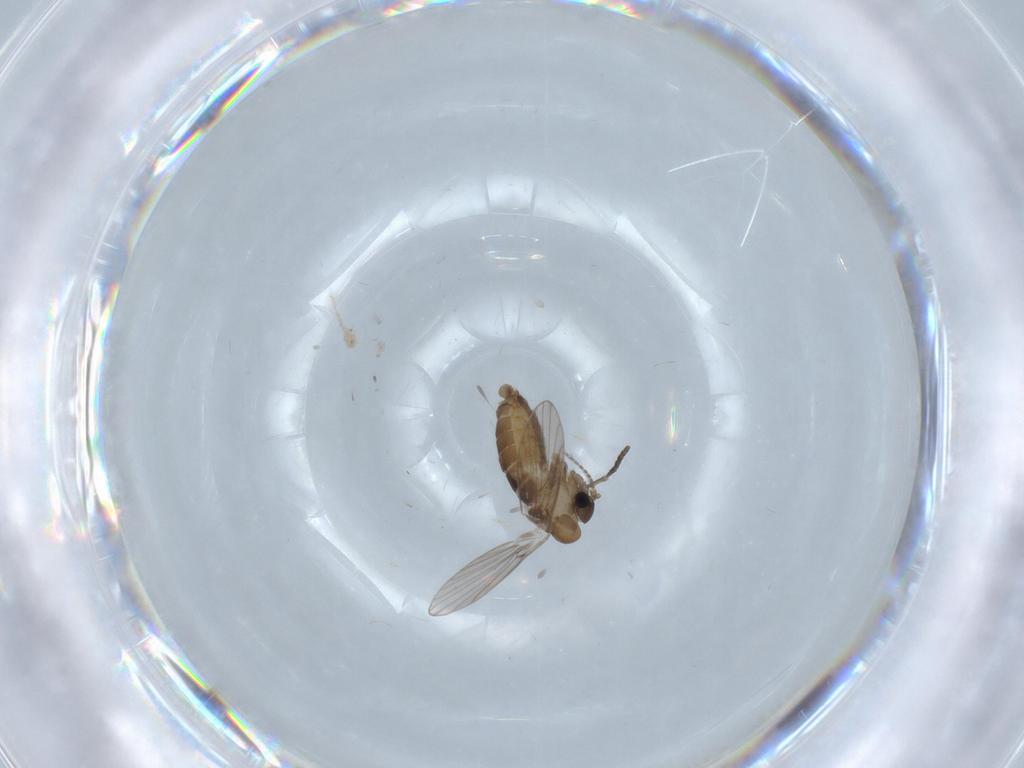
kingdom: Animalia
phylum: Arthropoda
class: Insecta
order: Diptera
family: Psychodidae
